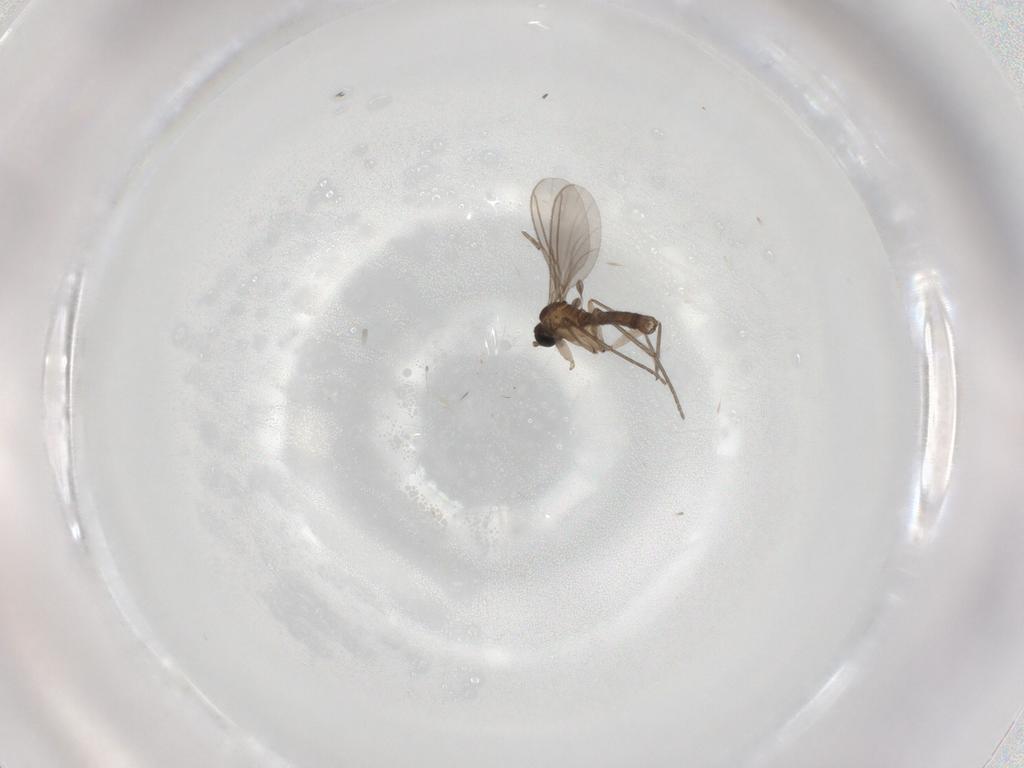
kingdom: Animalia
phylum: Arthropoda
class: Insecta
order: Diptera
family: Sciaridae
